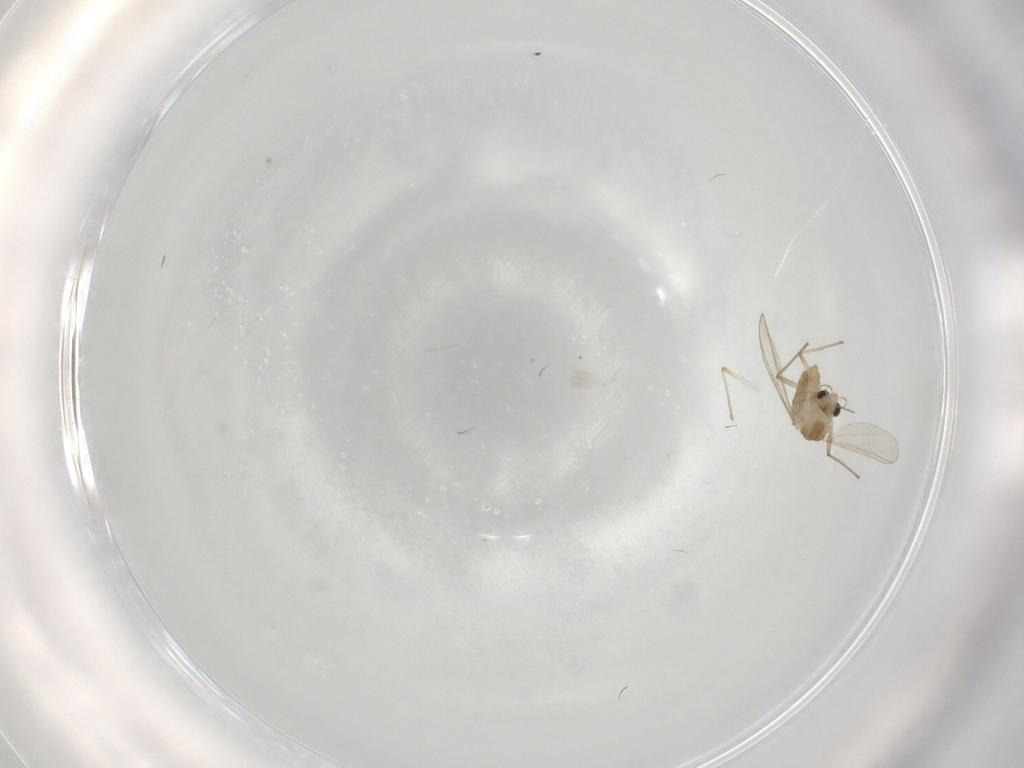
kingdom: Animalia
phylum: Arthropoda
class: Insecta
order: Diptera
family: Chironomidae
